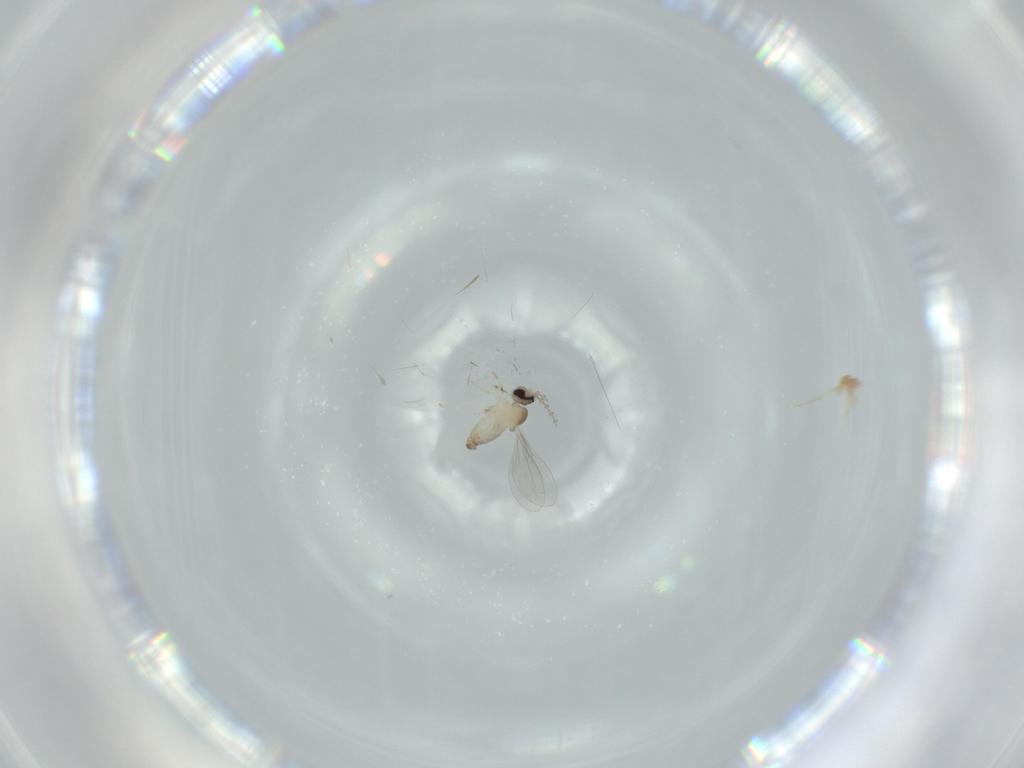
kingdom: Animalia
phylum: Arthropoda
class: Insecta
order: Diptera
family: Cecidomyiidae
